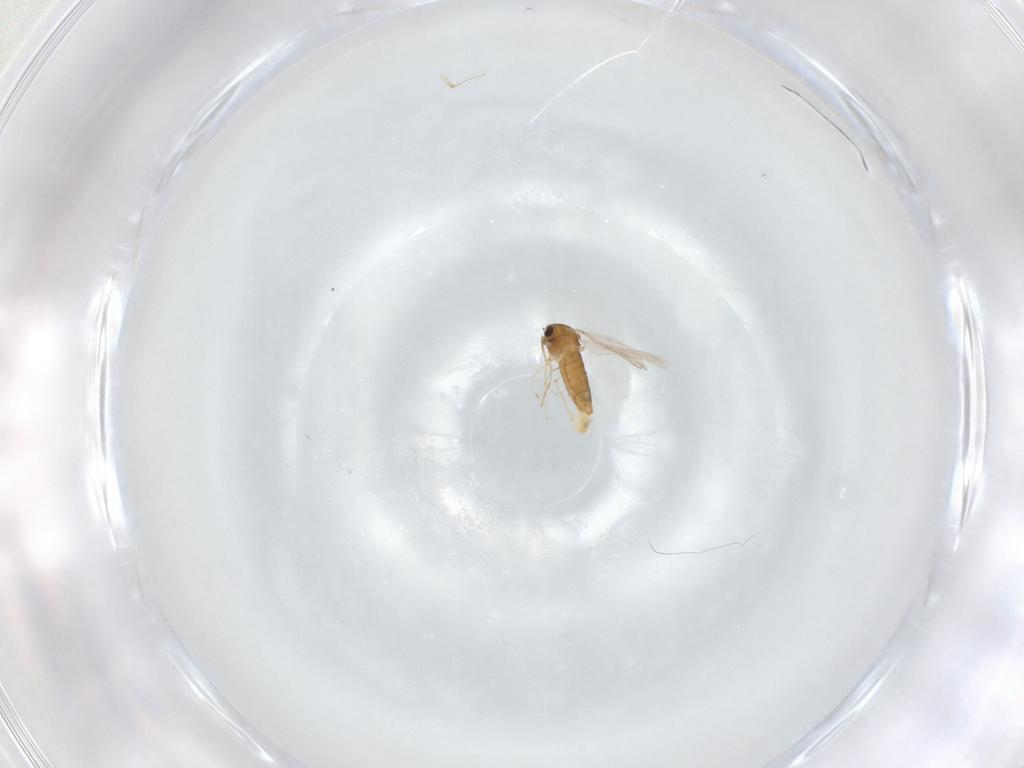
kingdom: Animalia
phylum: Arthropoda
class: Insecta
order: Diptera
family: Chironomidae
